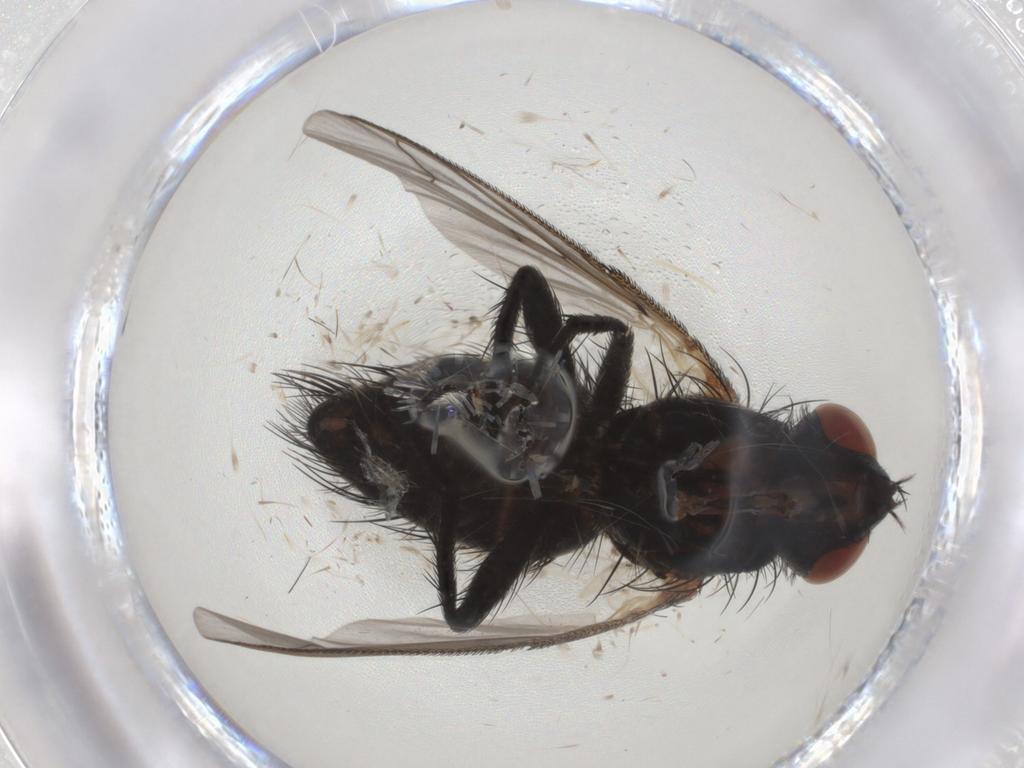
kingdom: Animalia
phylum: Arthropoda
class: Insecta
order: Diptera
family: Tachinidae
